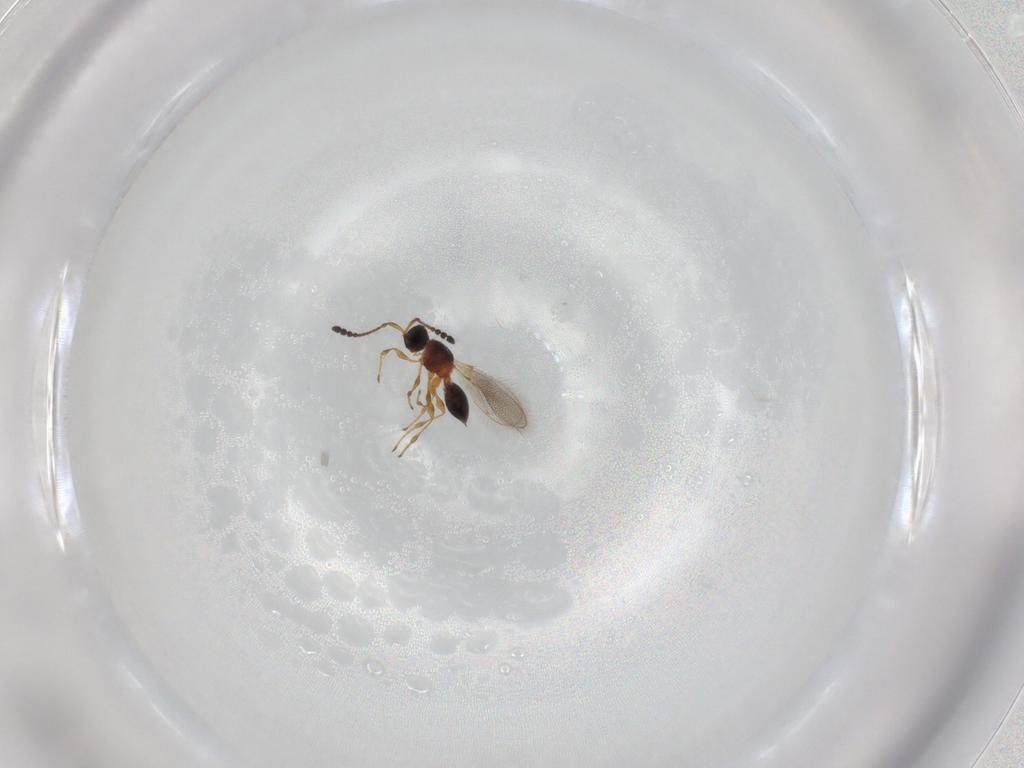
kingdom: Animalia
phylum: Arthropoda
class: Insecta
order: Hymenoptera
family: Diapriidae
